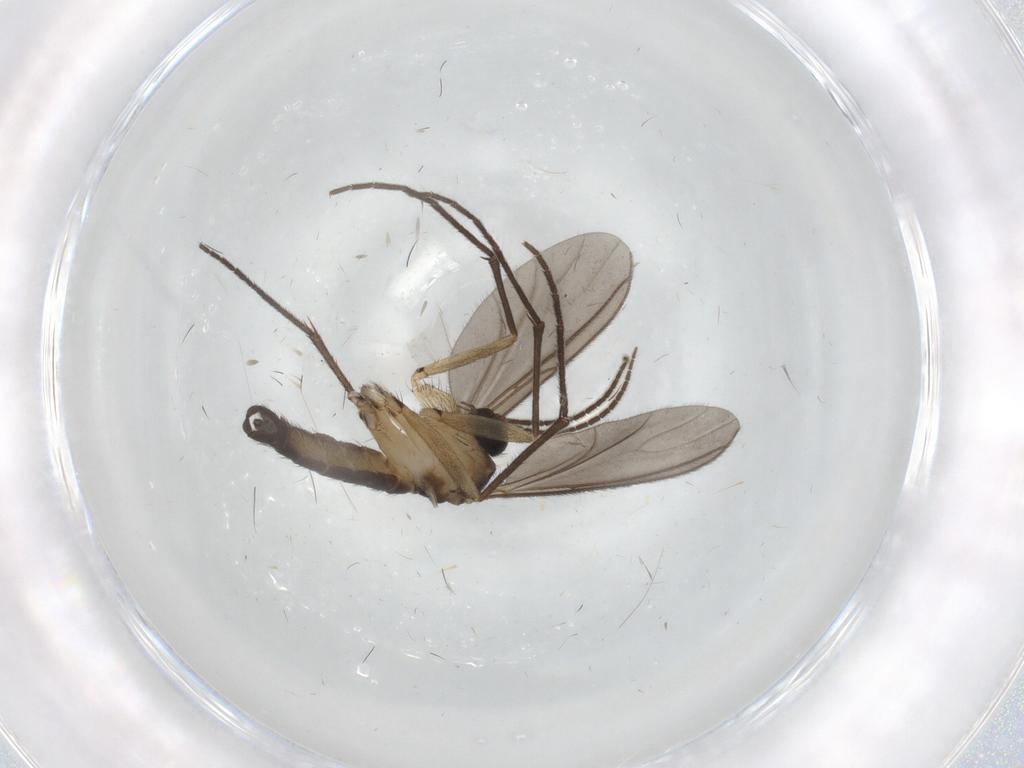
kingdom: Animalia
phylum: Arthropoda
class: Insecta
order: Diptera
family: Sciaridae
